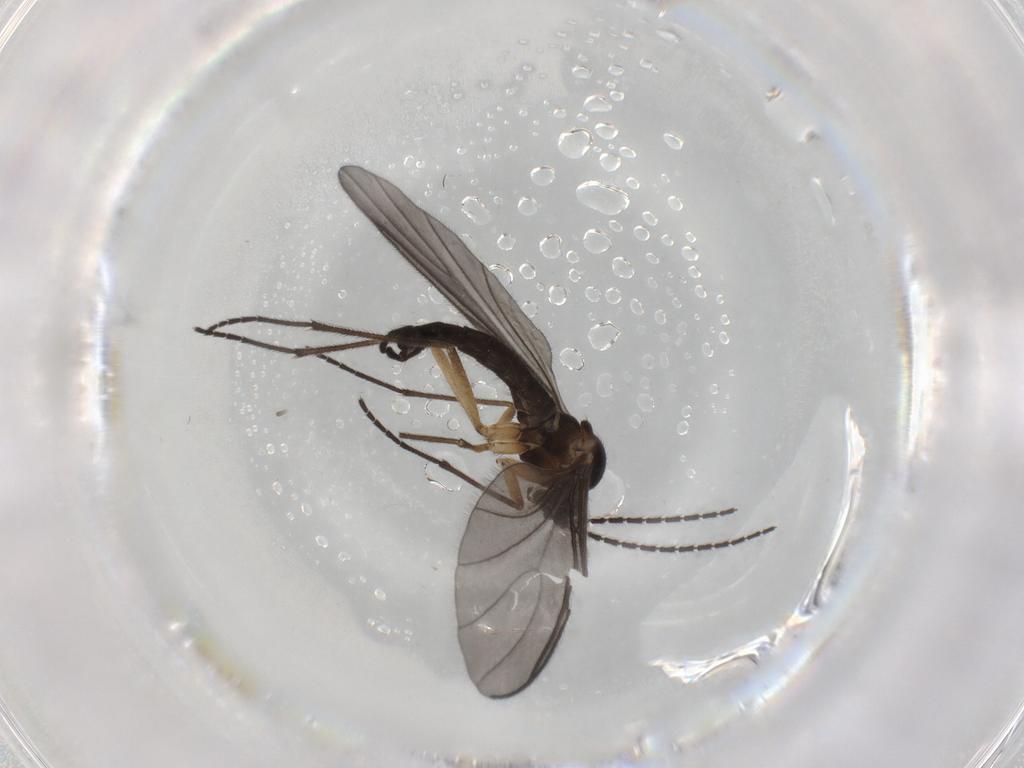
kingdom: Animalia
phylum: Arthropoda
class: Insecta
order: Diptera
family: Sciaridae
